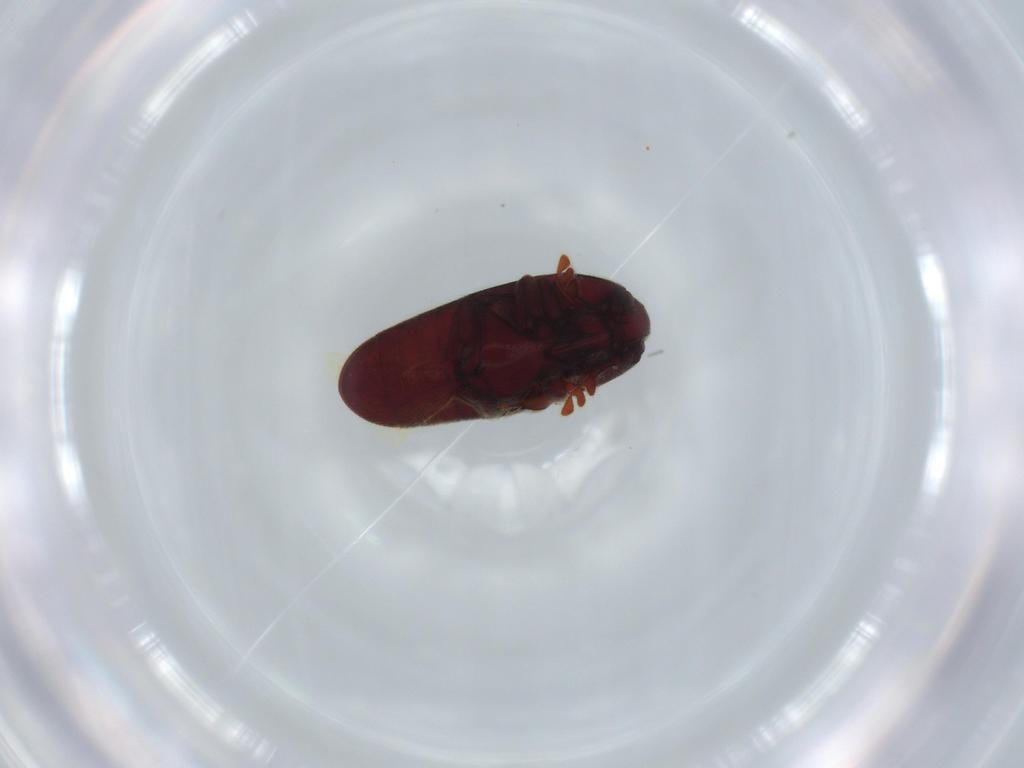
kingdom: Animalia
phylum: Arthropoda
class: Insecta
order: Coleoptera
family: Throscidae
